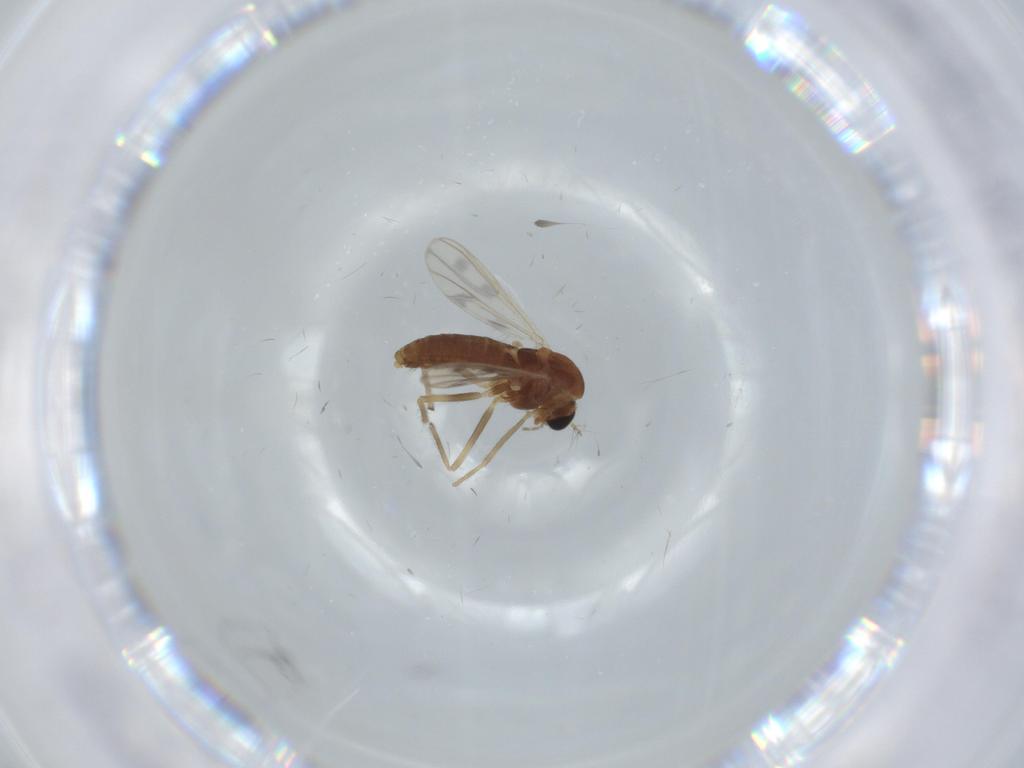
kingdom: Animalia
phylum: Arthropoda
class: Insecta
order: Diptera
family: Chironomidae
